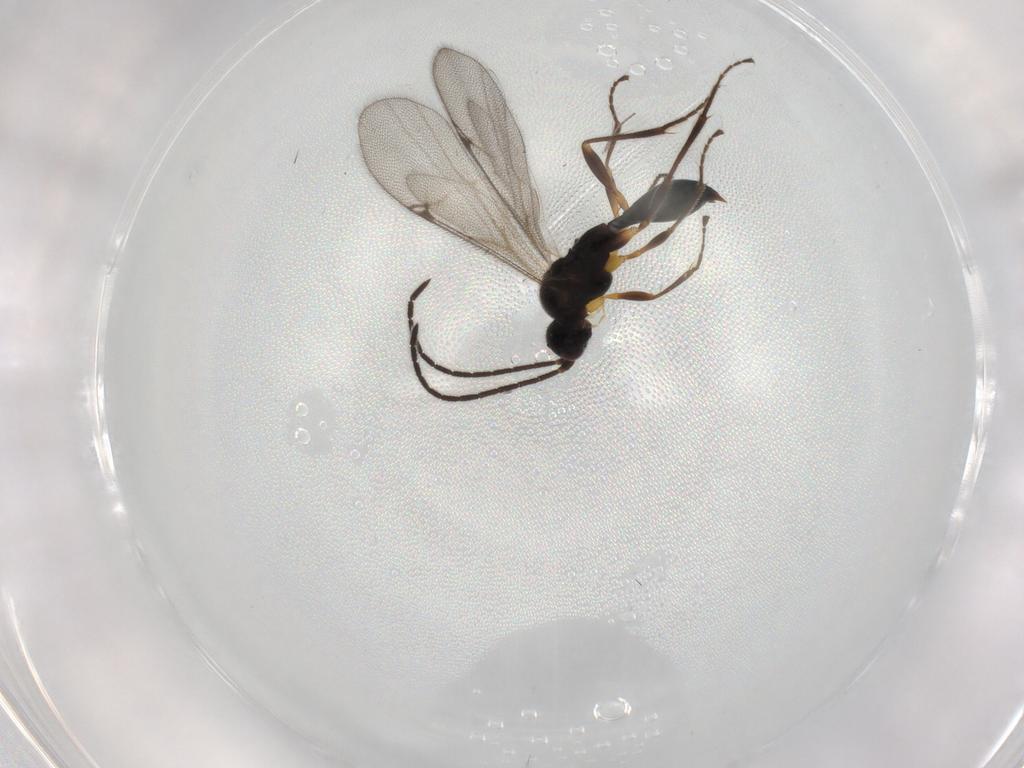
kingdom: Animalia
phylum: Arthropoda
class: Insecta
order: Hymenoptera
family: Proctotrupidae
